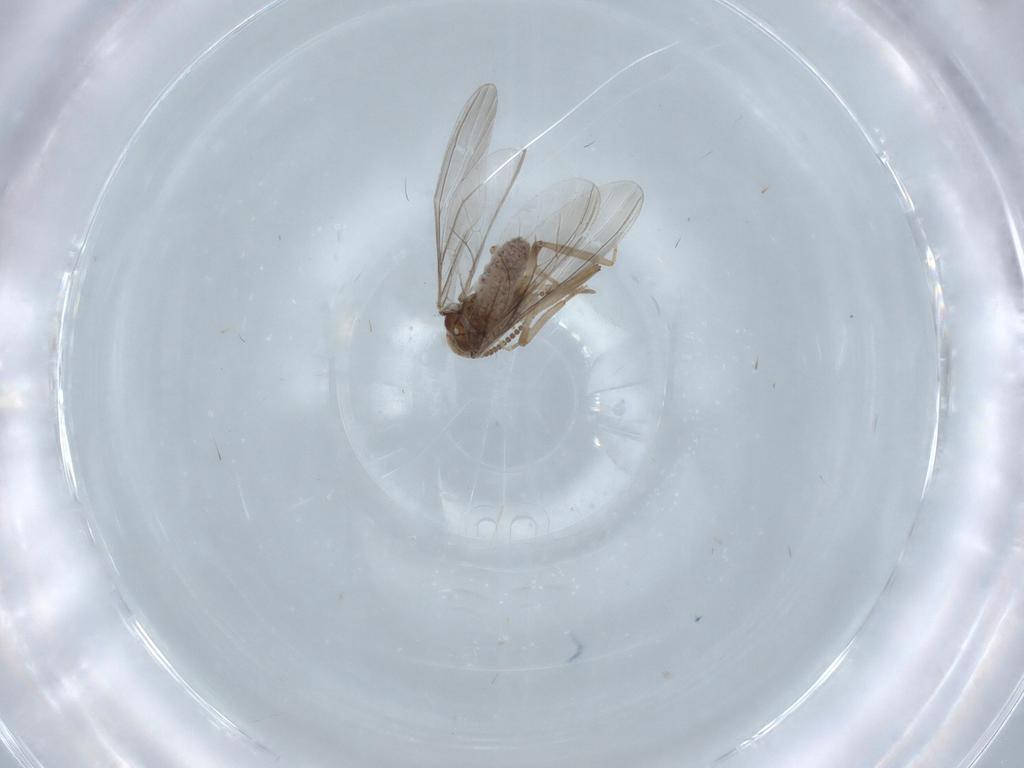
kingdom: Animalia
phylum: Arthropoda
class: Insecta
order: Neuroptera
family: Coniopterygidae
